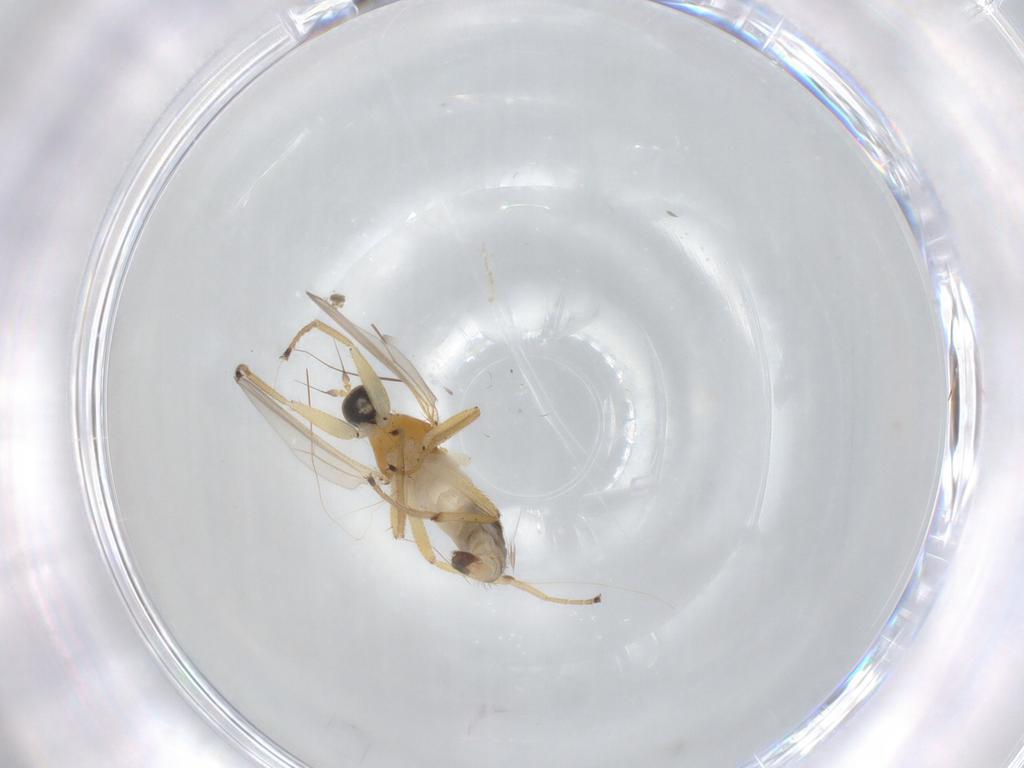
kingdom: Animalia
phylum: Arthropoda
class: Insecta
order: Diptera
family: Hybotidae
